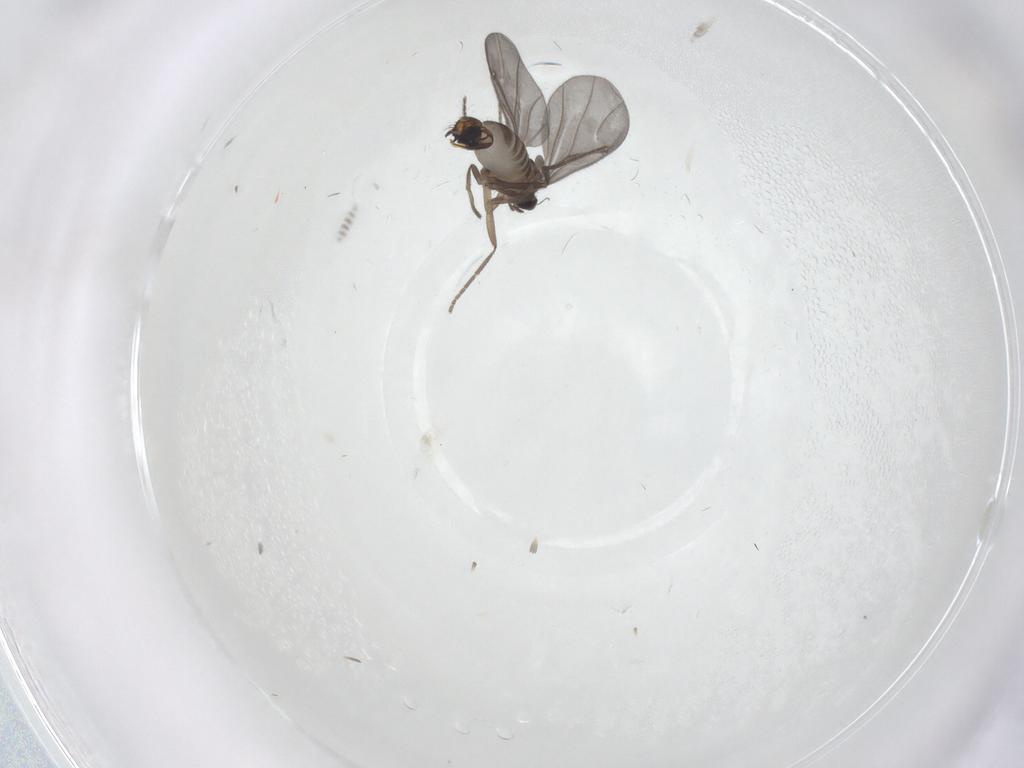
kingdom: Animalia
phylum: Arthropoda
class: Insecta
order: Diptera
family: Phoridae
